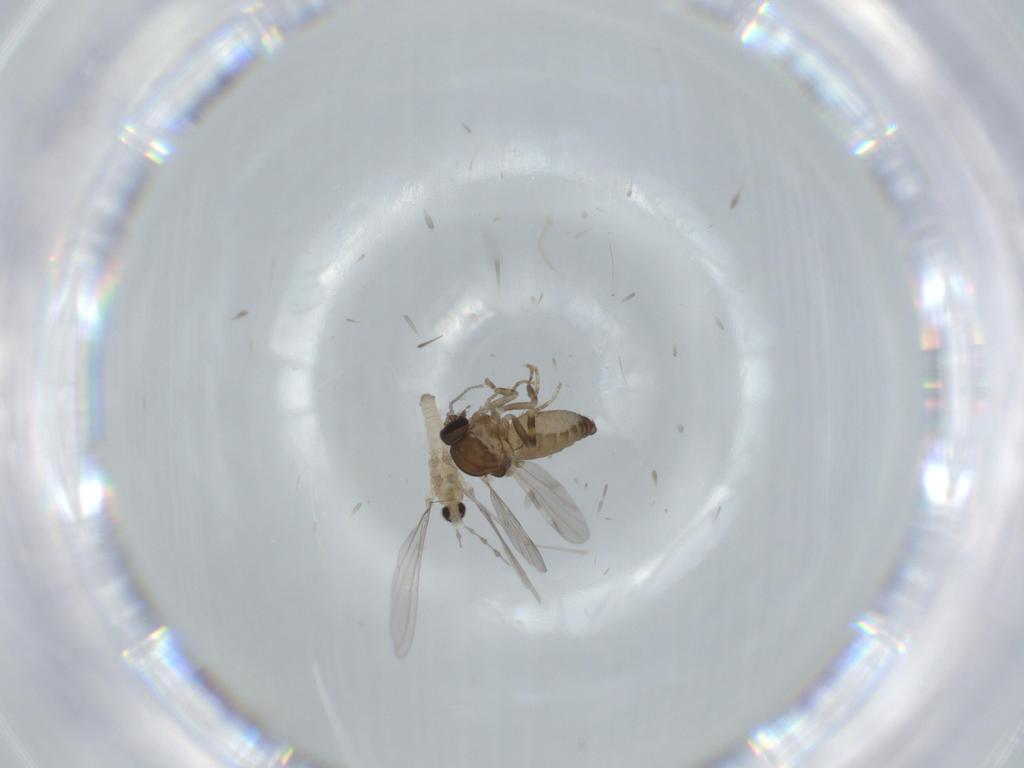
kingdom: Animalia
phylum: Arthropoda
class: Insecta
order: Diptera
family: Ceratopogonidae
